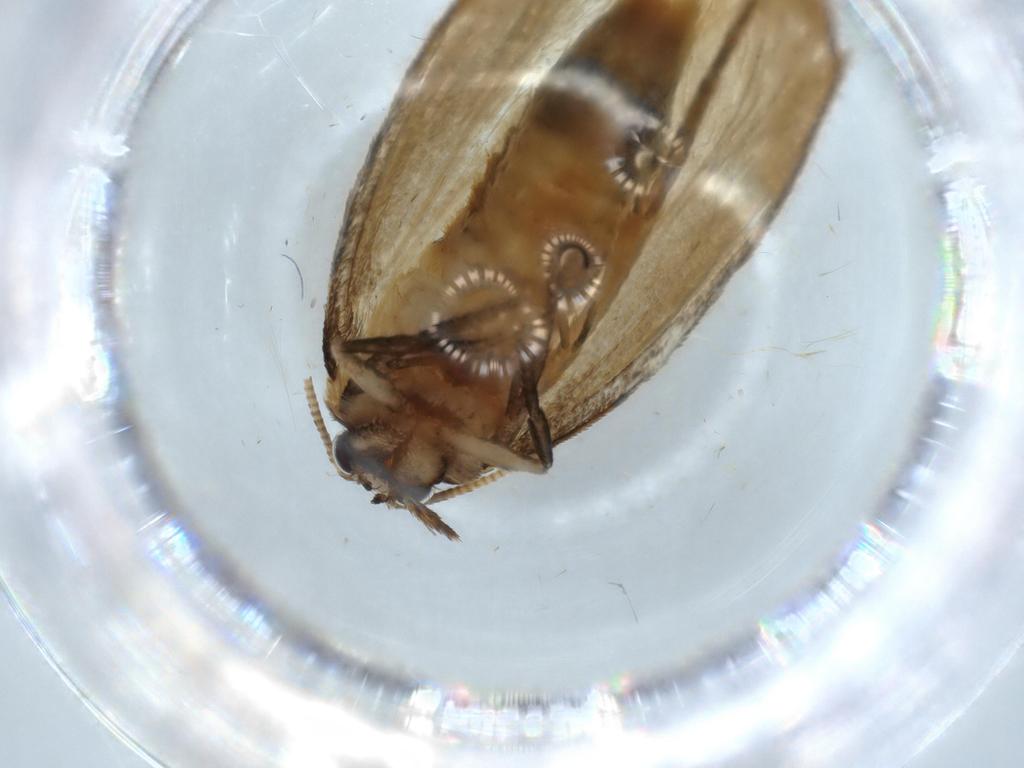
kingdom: Animalia
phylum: Arthropoda
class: Insecta
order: Lepidoptera
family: Tineidae
